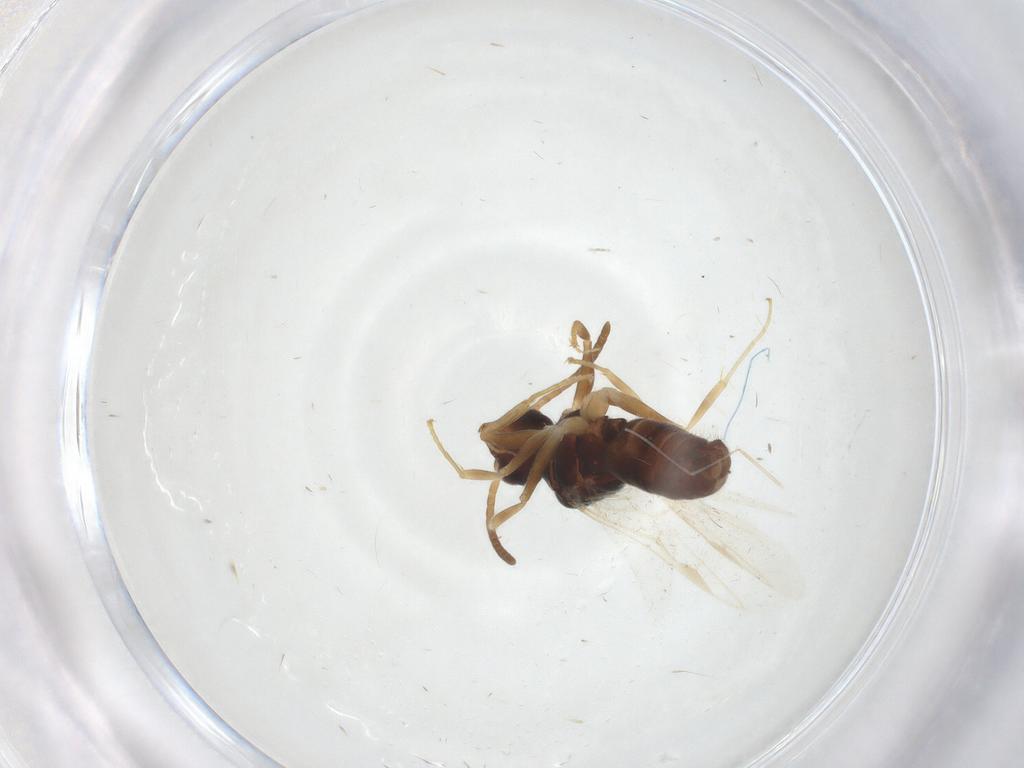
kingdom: Animalia
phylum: Arthropoda
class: Insecta
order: Hymenoptera
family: Formicidae
